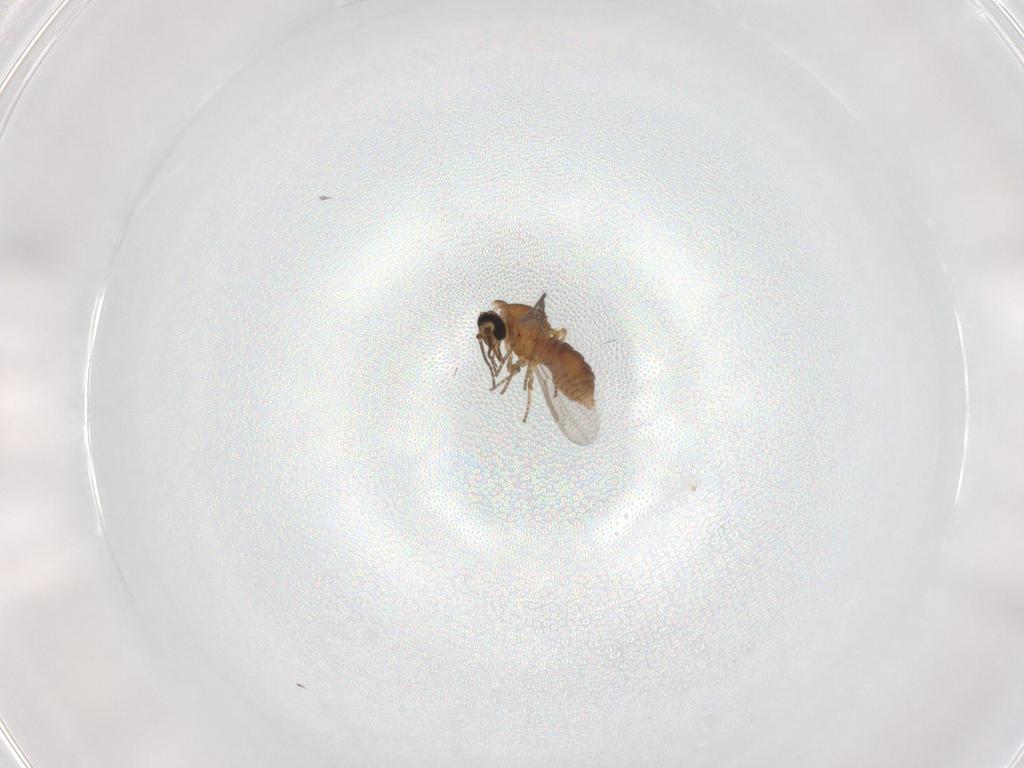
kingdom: Animalia
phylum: Arthropoda
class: Insecta
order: Diptera
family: Ceratopogonidae
